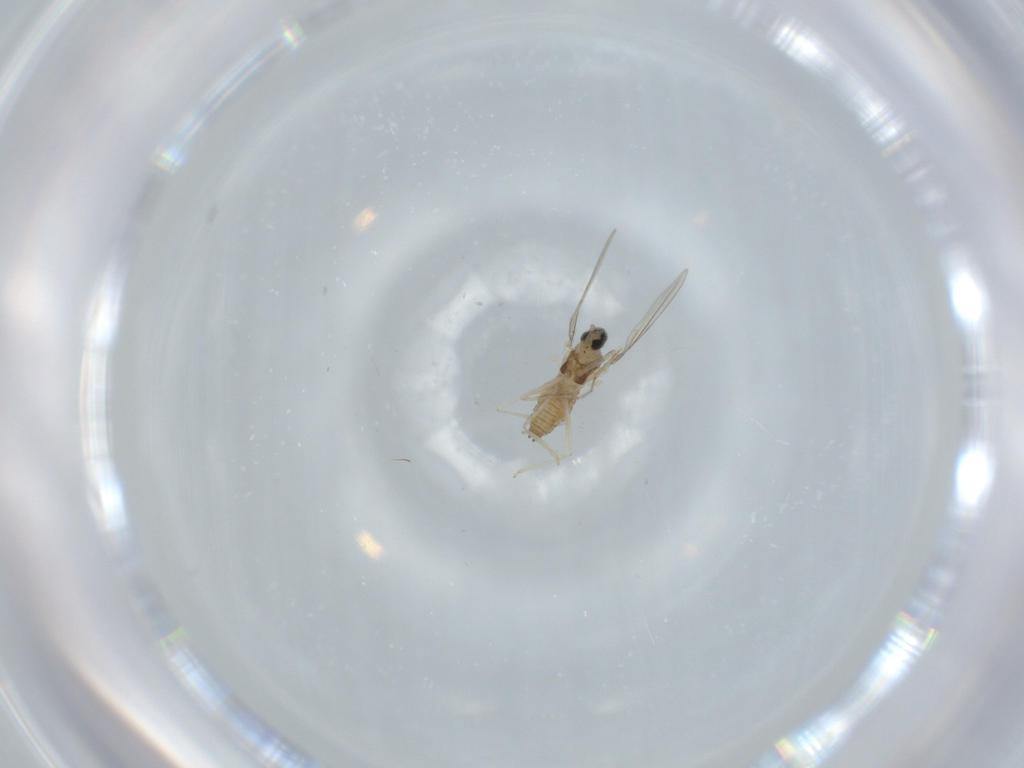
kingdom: Animalia
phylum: Arthropoda
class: Insecta
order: Diptera
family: Cecidomyiidae
